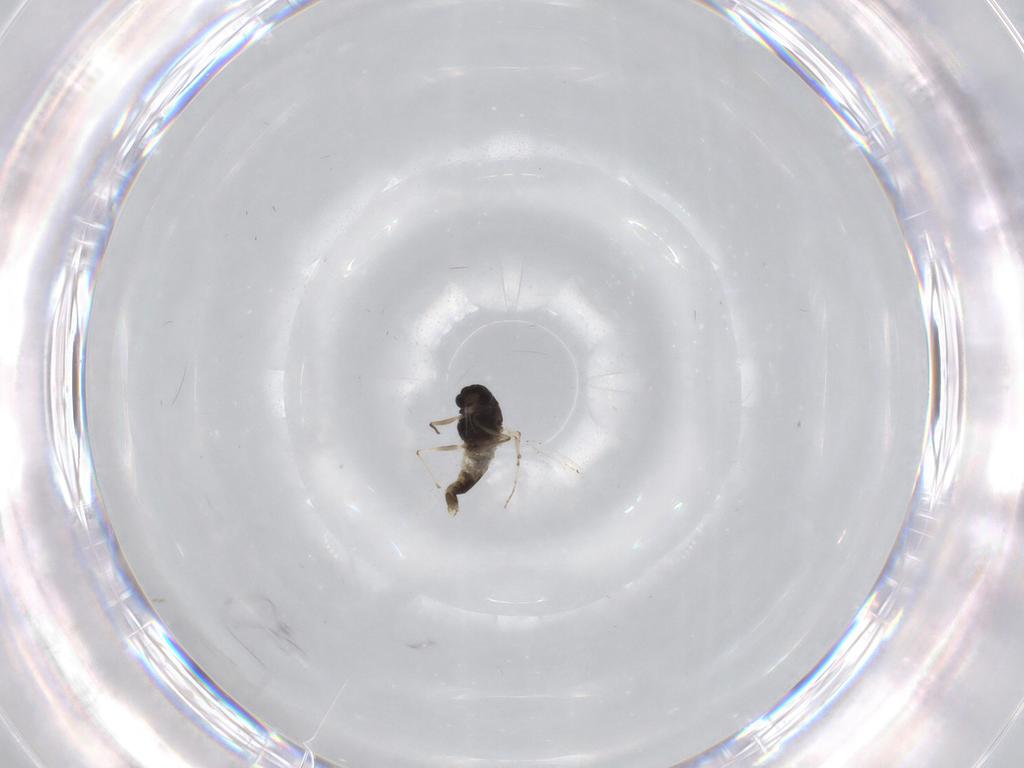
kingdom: Animalia
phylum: Arthropoda
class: Insecta
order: Diptera
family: Chironomidae
